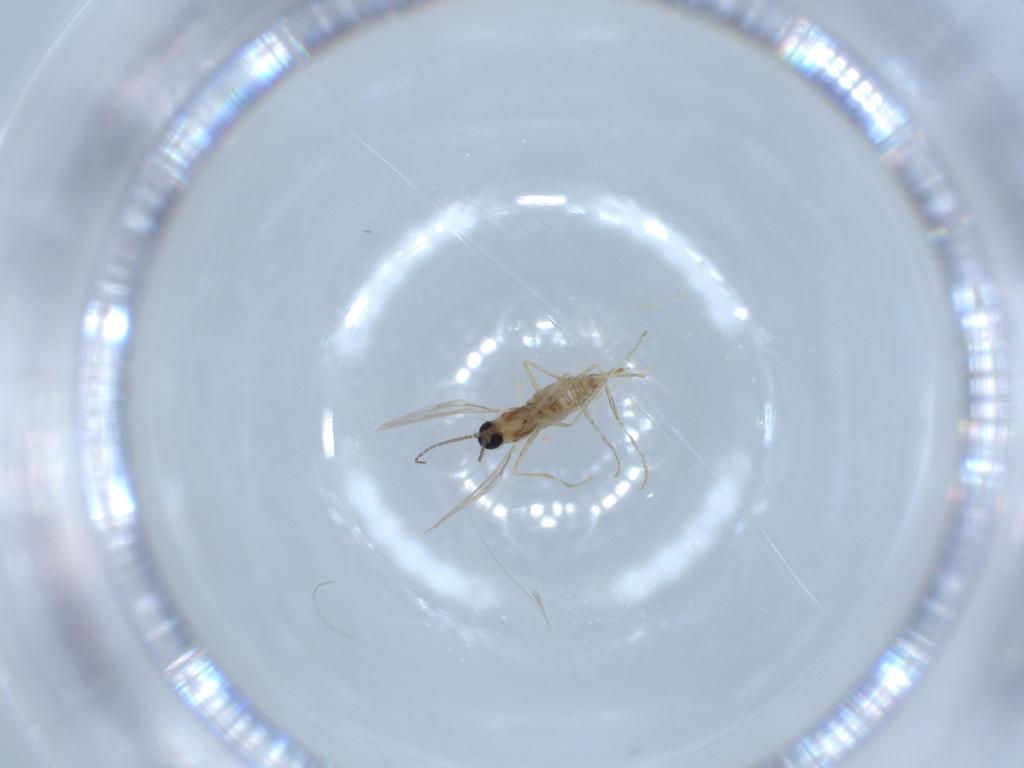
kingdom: Animalia
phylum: Arthropoda
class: Insecta
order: Diptera
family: Cecidomyiidae
